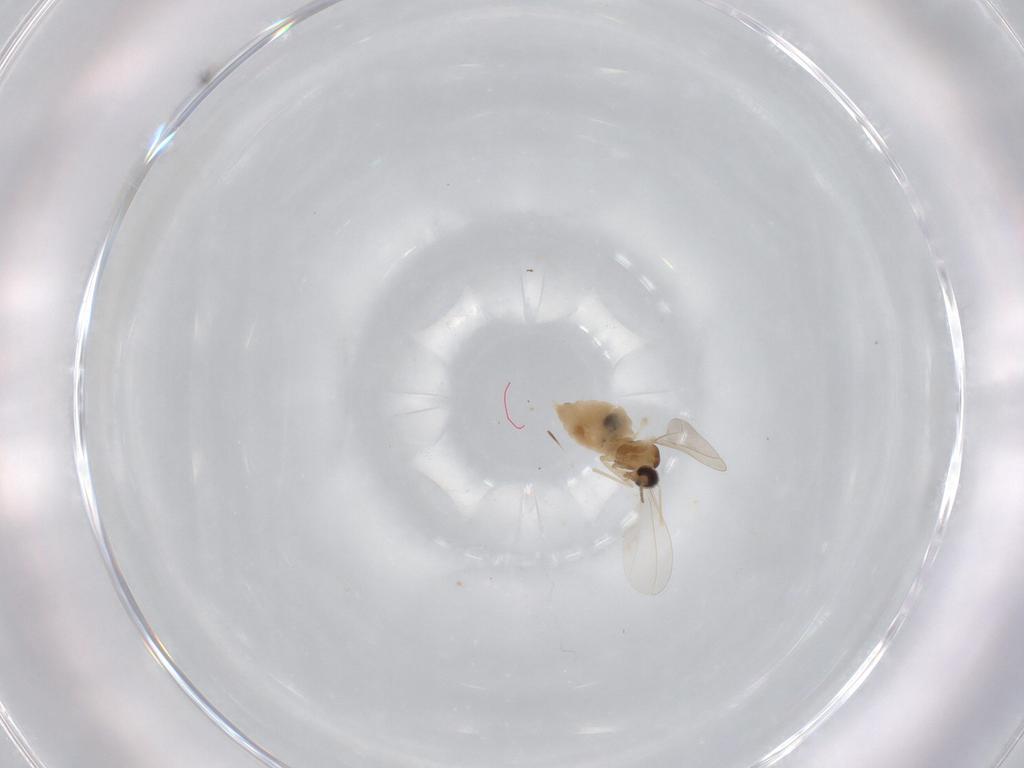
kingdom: Animalia
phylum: Arthropoda
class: Insecta
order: Diptera
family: Cecidomyiidae
